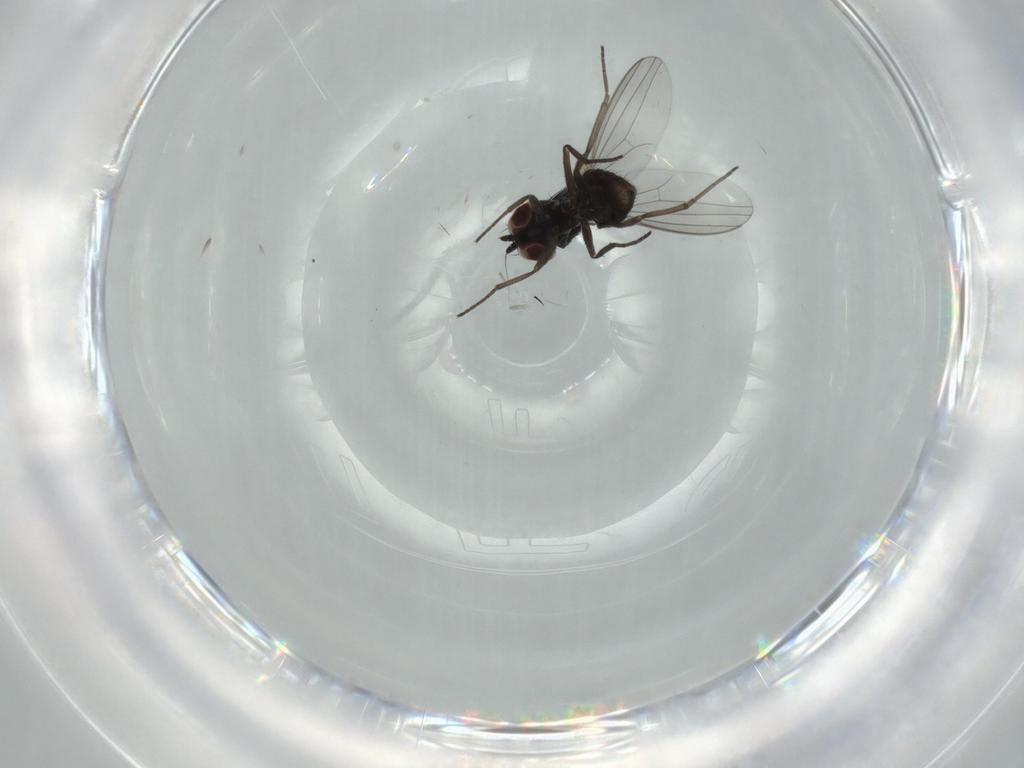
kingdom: Animalia
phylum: Arthropoda
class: Insecta
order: Diptera
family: Dolichopodidae
